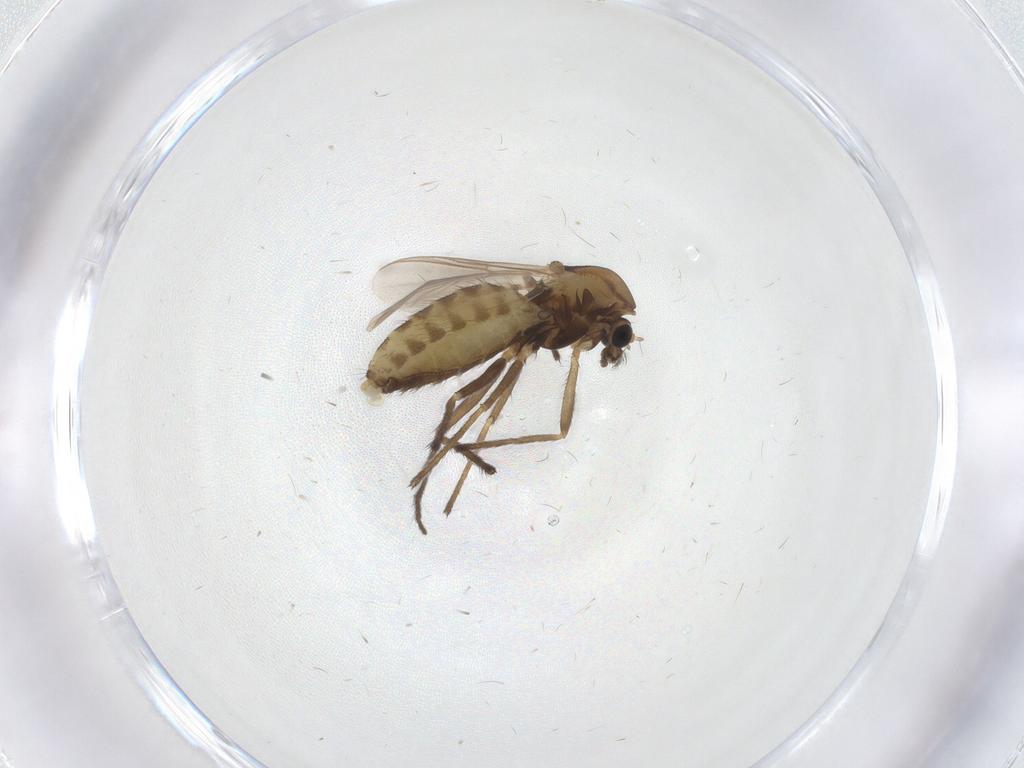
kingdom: Animalia
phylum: Arthropoda
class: Insecta
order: Diptera
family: Chironomidae
